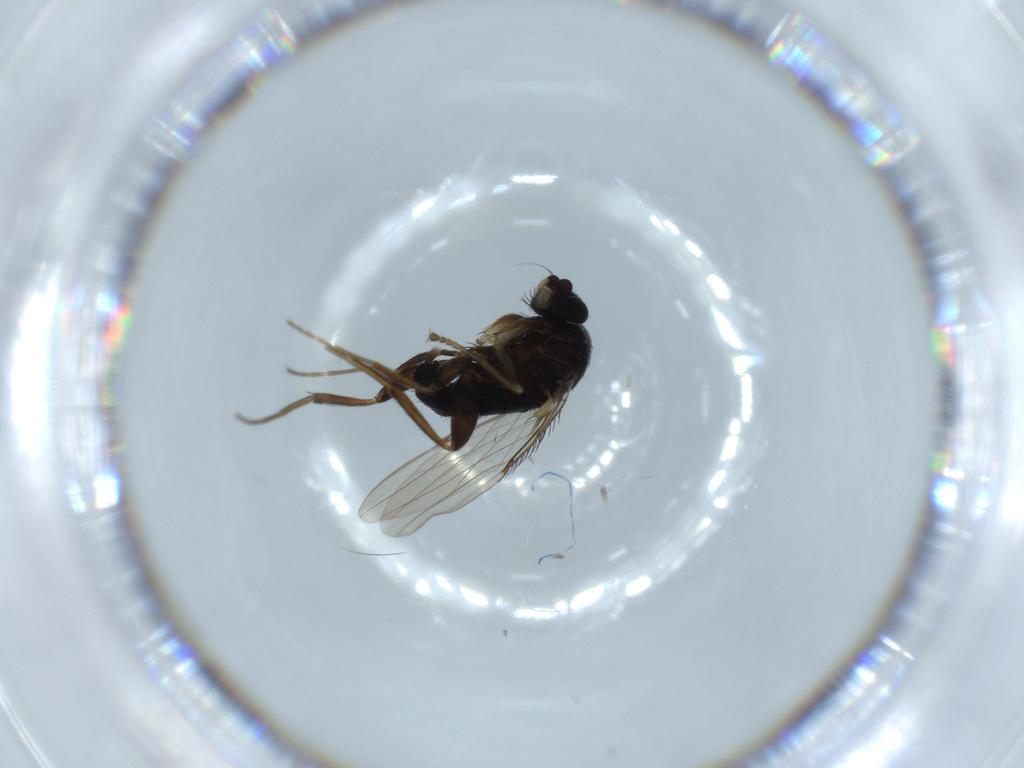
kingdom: Animalia
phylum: Arthropoda
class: Insecta
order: Diptera
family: Phoridae
